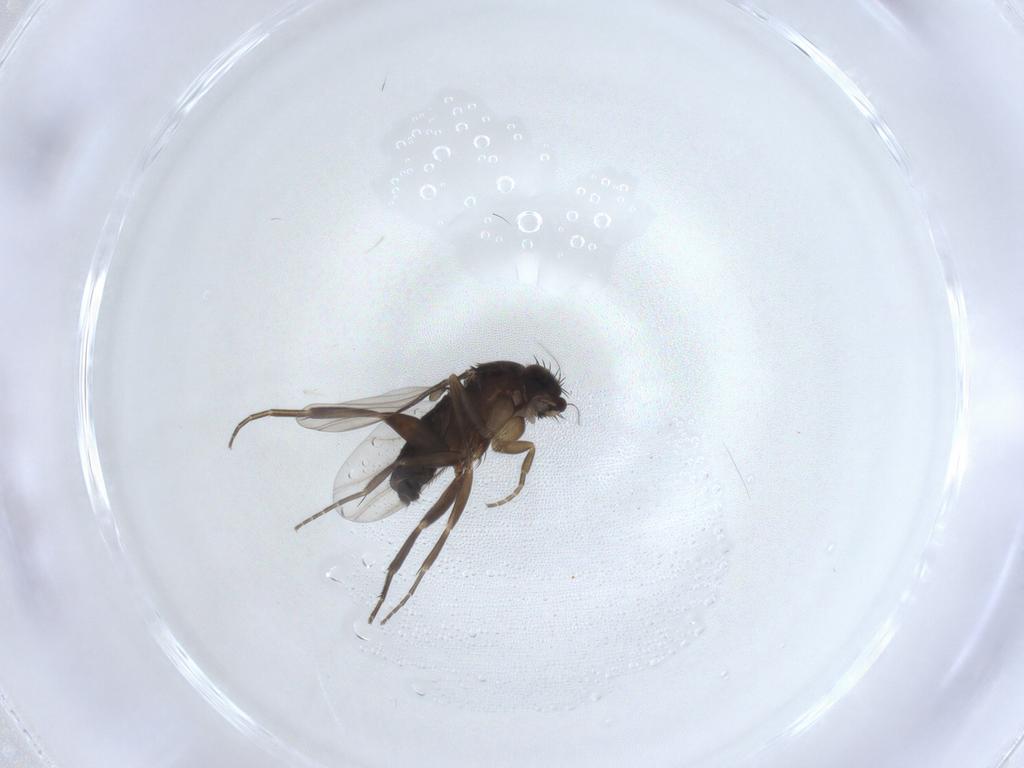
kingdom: Animalia
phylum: Arthropoda
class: Insecta
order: Diptera
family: Phoridae
